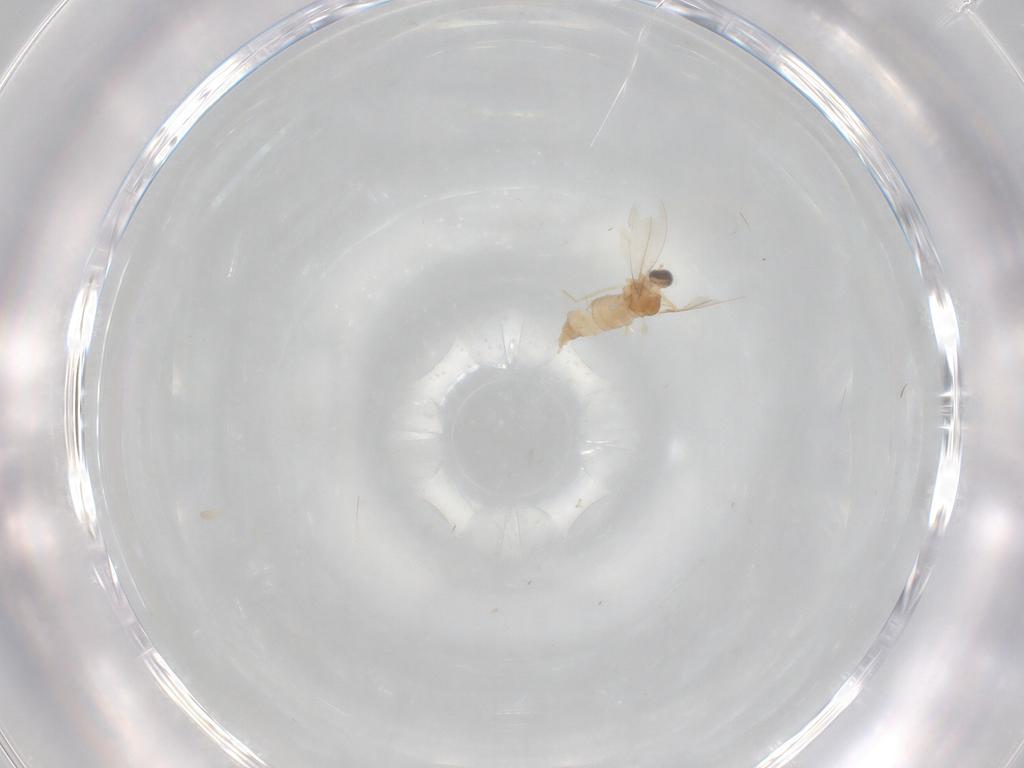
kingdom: Animalia
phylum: Arthropoda
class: Insecta
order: Diptera
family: Cecidomyiidae
